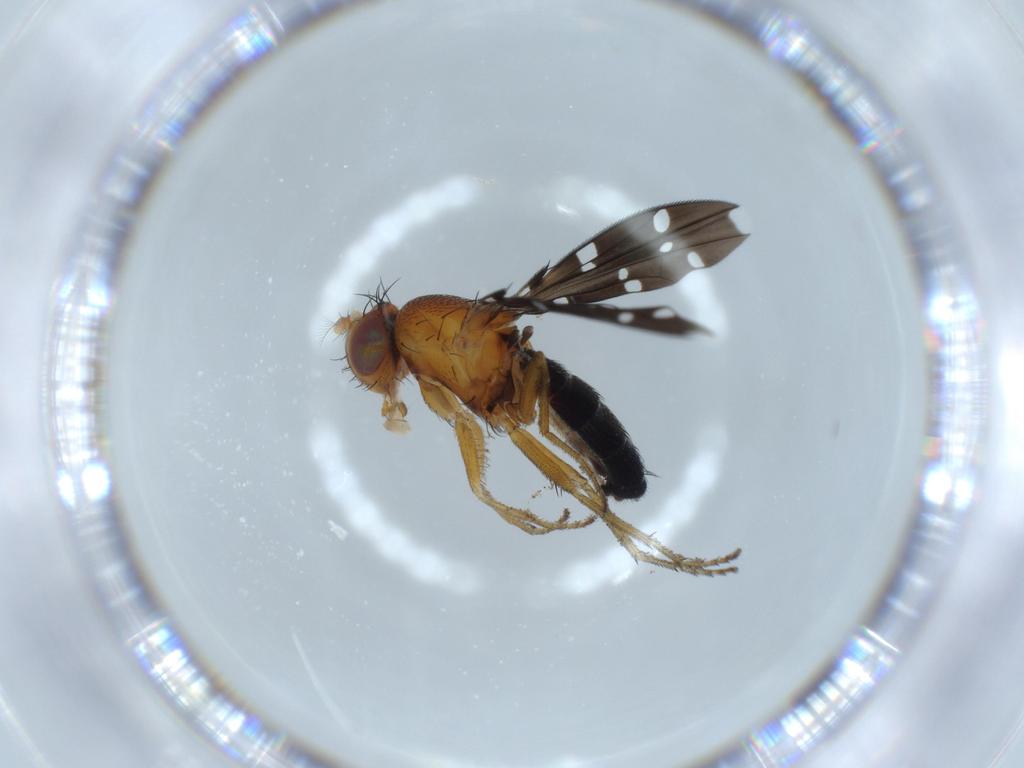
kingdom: Animalia
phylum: Arthropoda
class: Insecta
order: Diptera
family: Ephydridae
